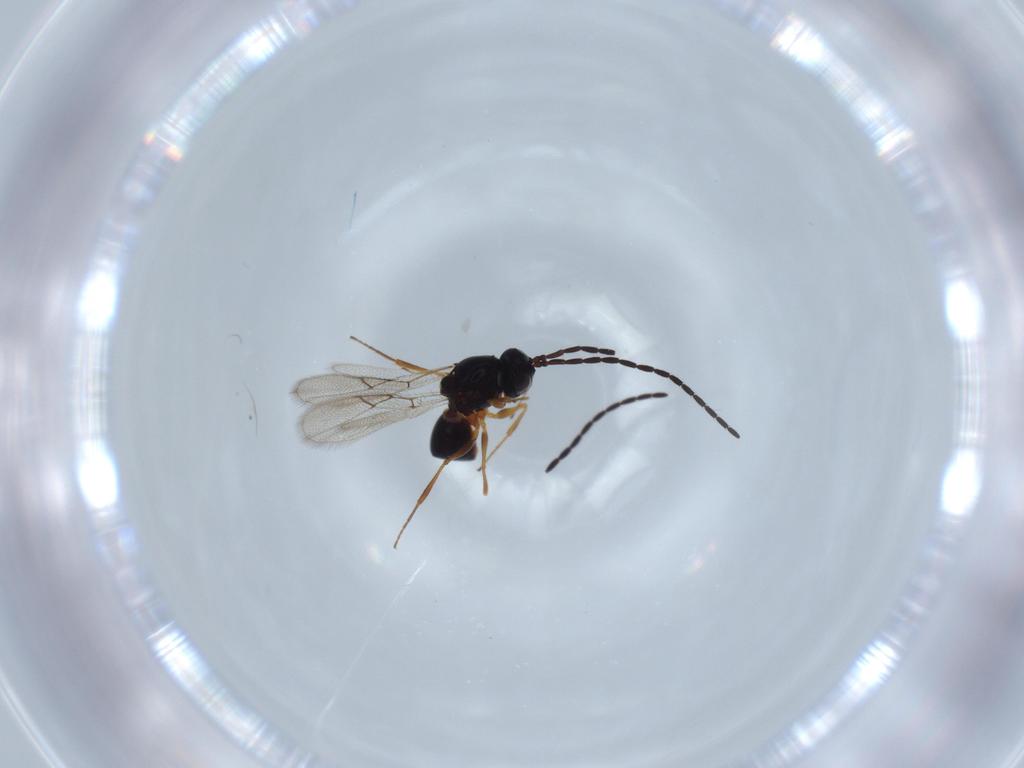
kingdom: Animalia
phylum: Arthropoda
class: Insecta
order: Hymenoptera
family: Figitidae
